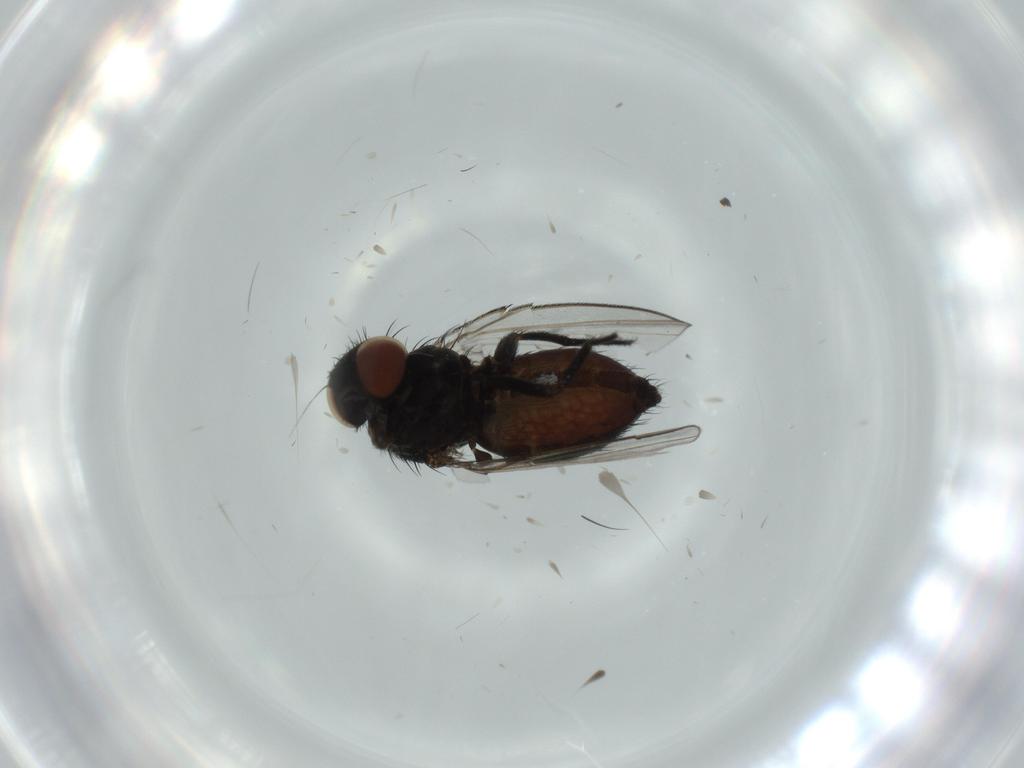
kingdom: Animalia
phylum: Arthropoda
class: Insecta
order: Diptera
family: Milichiidae
